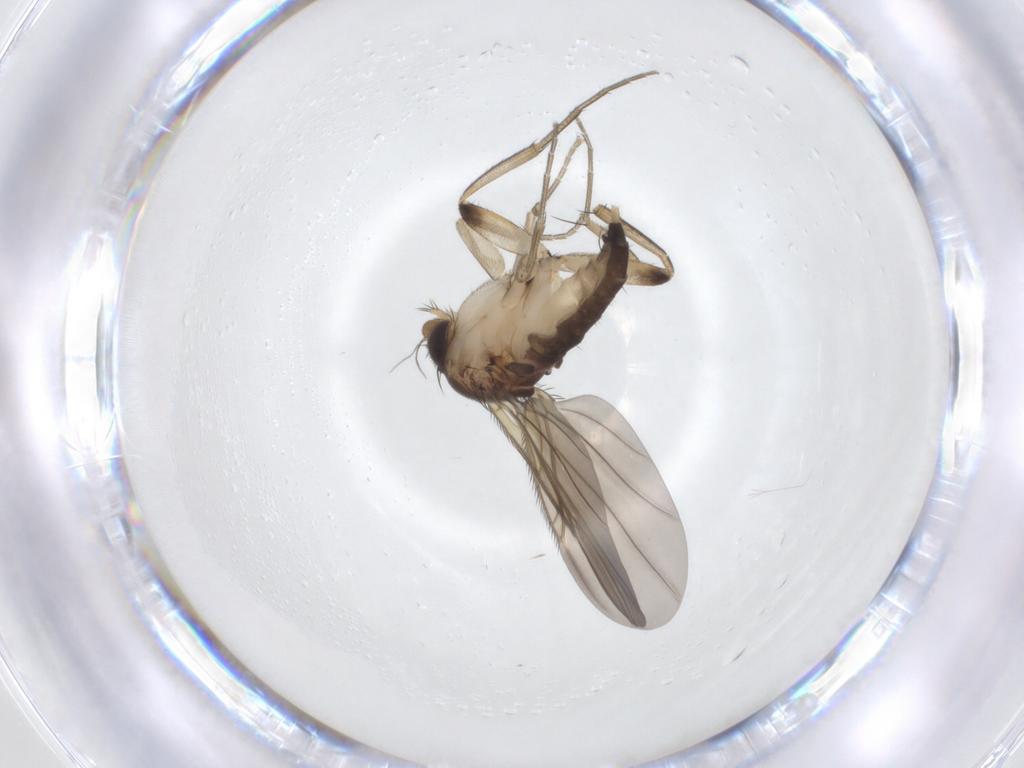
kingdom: Animalia
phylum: Arthropoda
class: Insecta
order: Diptera
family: Phoridae
